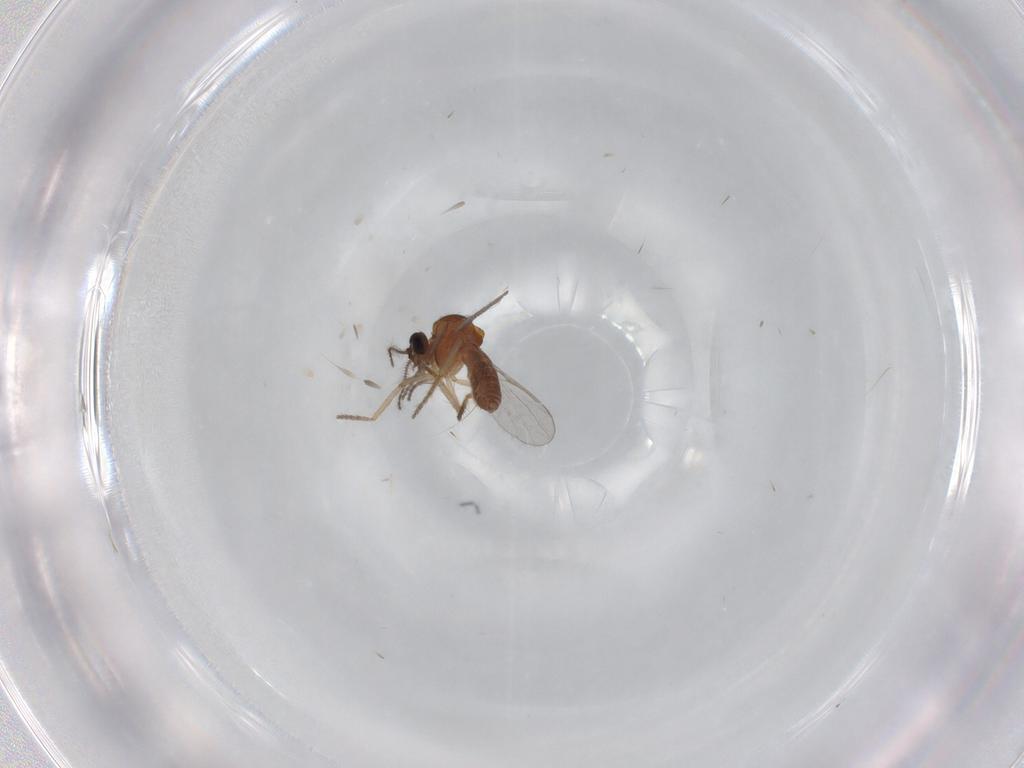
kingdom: Animalia
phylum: Arthropoda
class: Insecta
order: Diptera
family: Ceratopogonidae
